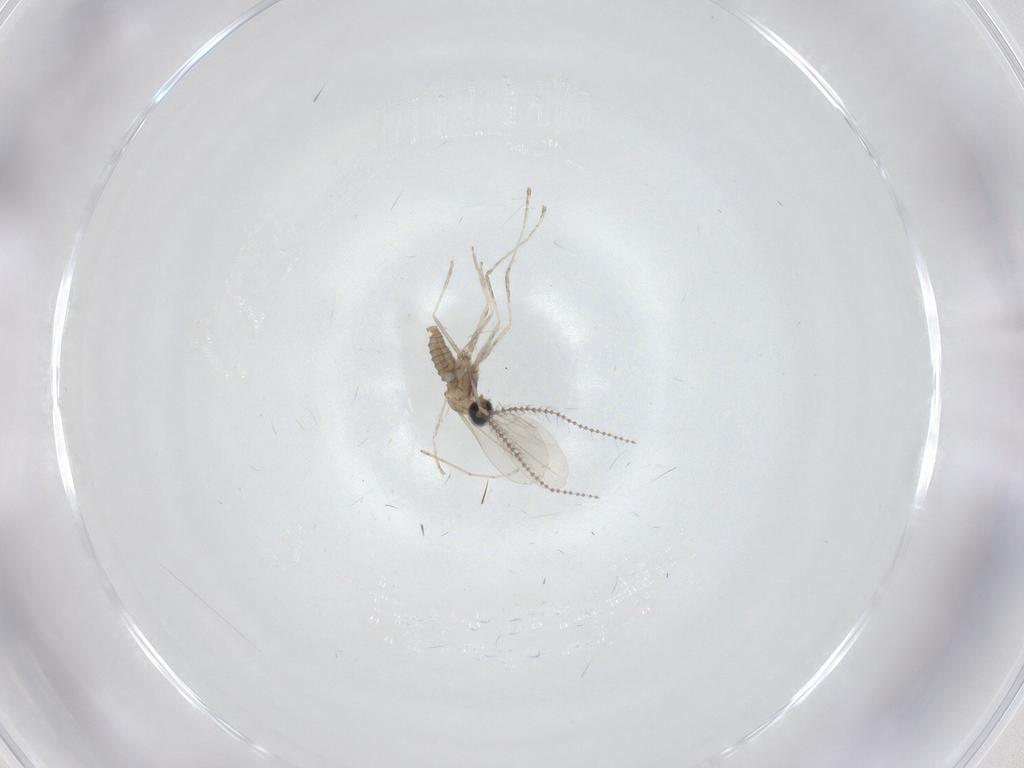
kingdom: Animalia
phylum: Arthropoda
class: Insecta
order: Diptera
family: Cecidomyiidae
